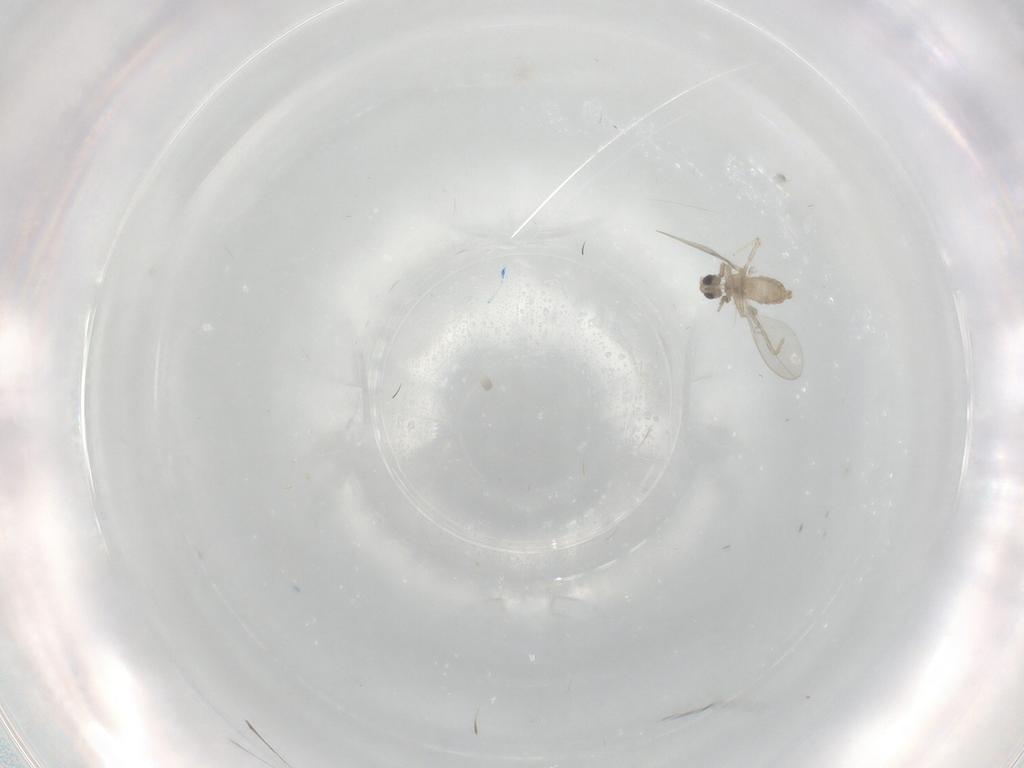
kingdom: Animalia
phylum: Arthropoda
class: Insecta
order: Diptera
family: Cecidomyiidae
